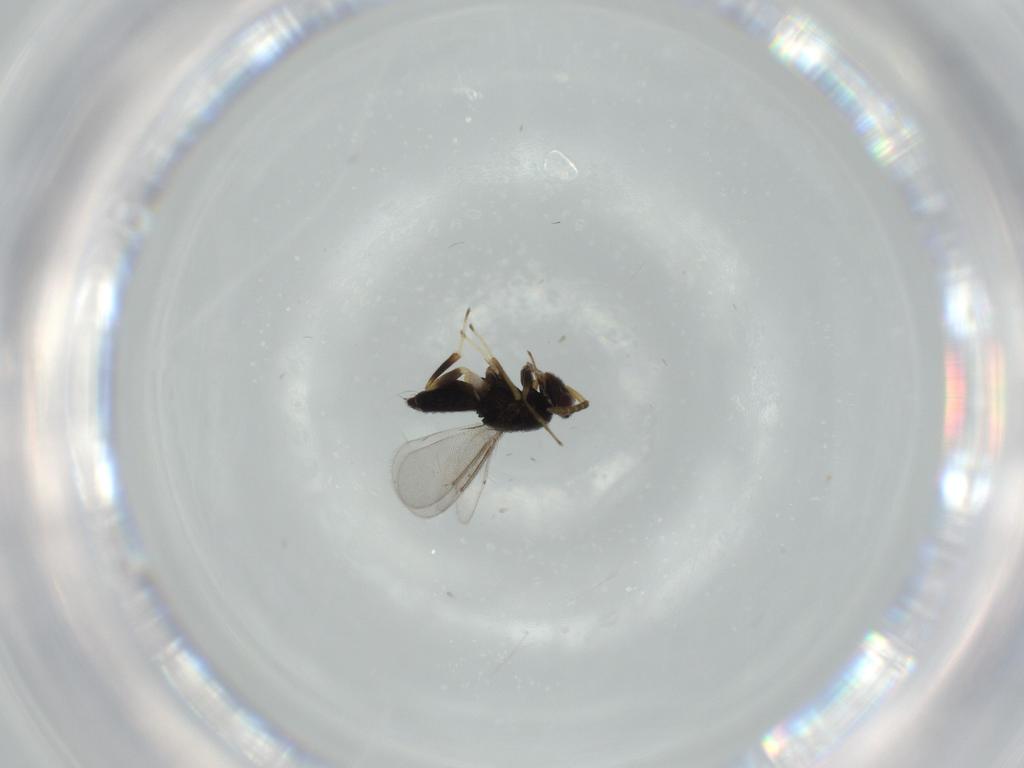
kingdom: Animalia
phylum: Arthropoda
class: Insecta
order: Hymenoptera
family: Aphelinidae
